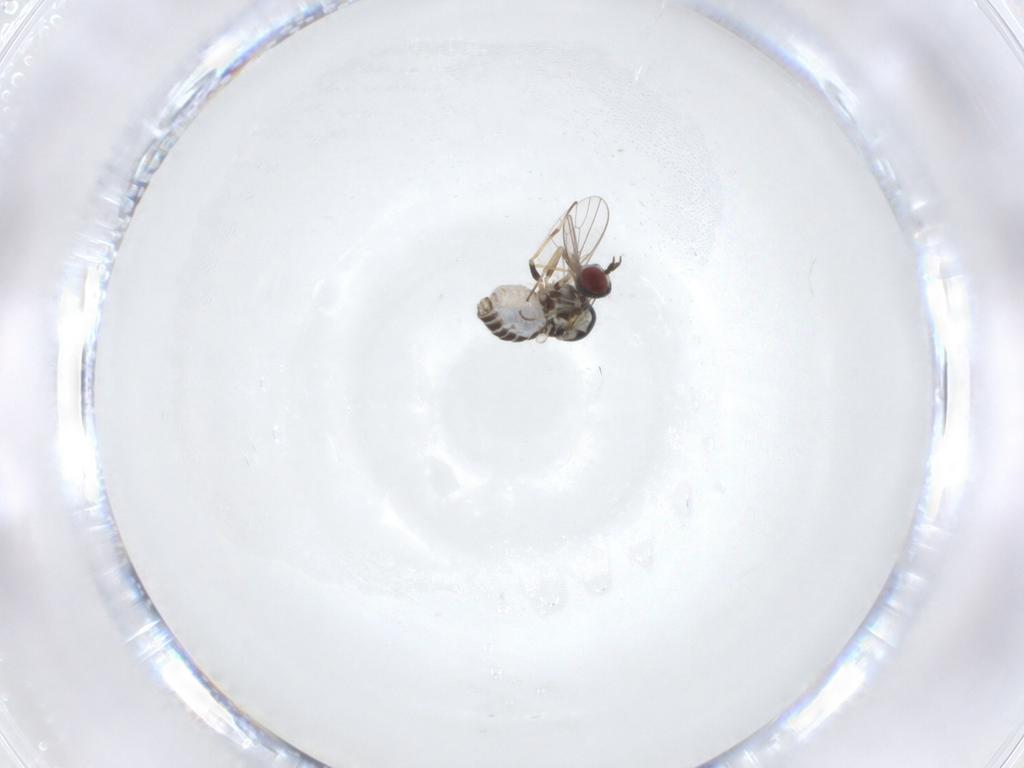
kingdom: Animalia
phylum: Arthropoda
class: Insecta
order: Diptera
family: Mythicomyiidae
